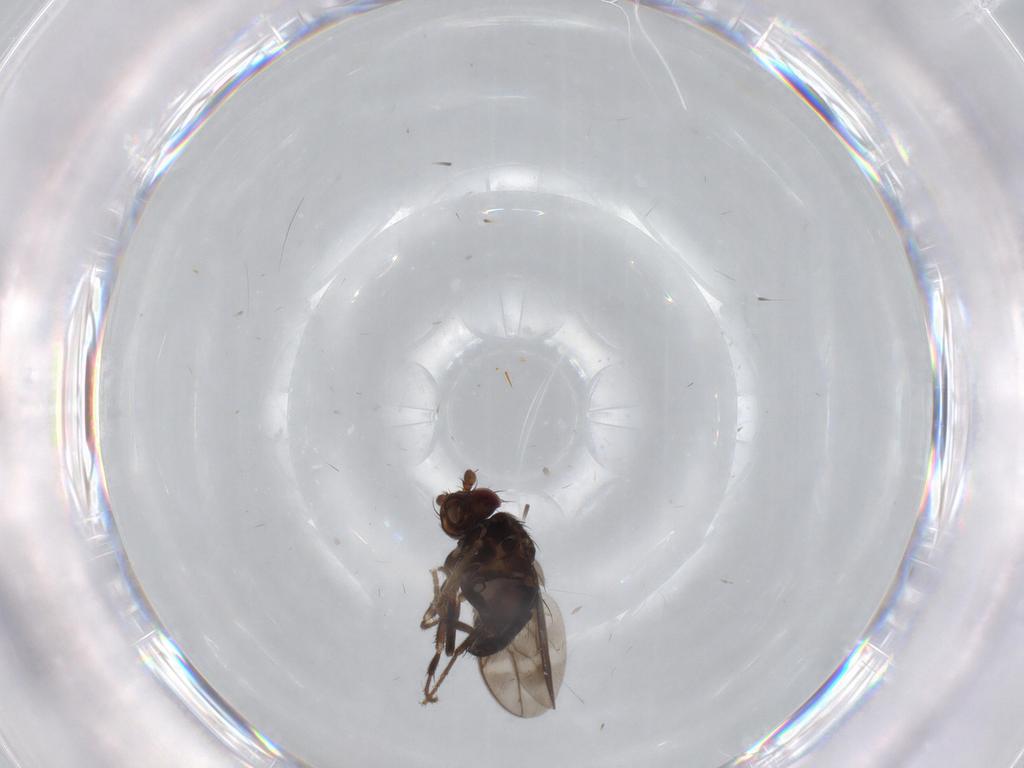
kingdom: Animalia
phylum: Arthropoda
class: Insecta
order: Diptera
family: Sphaeroceridae
